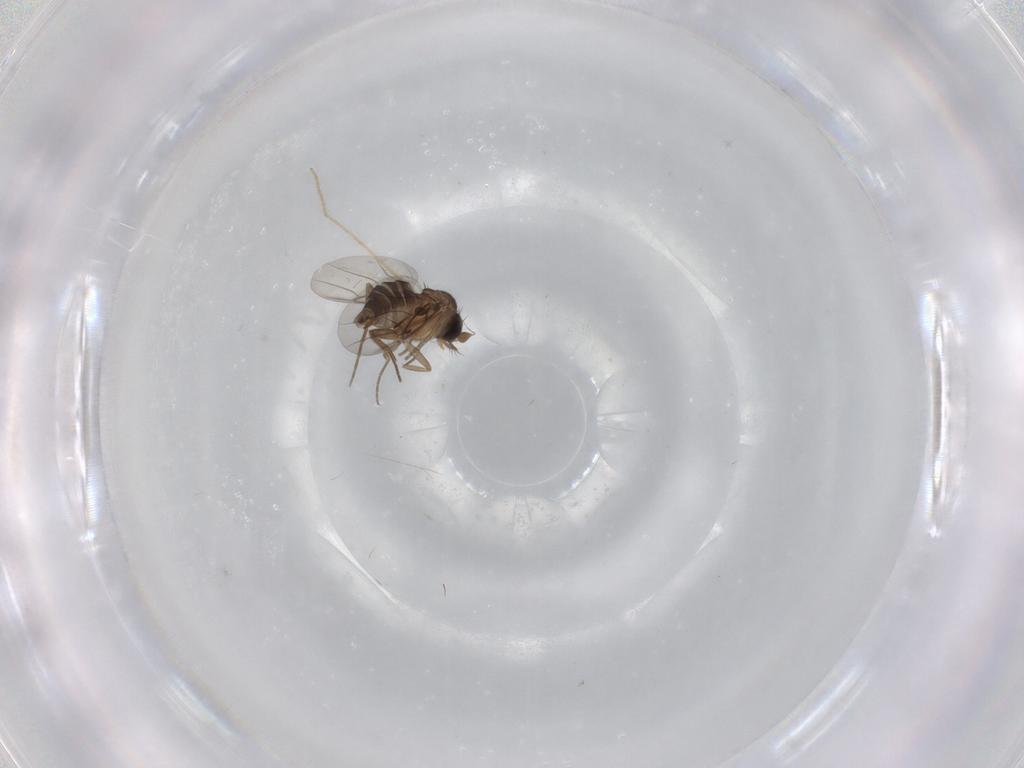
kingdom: Animalia
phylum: Arthropoda
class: Insecta
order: Diptera
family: Phoridae
